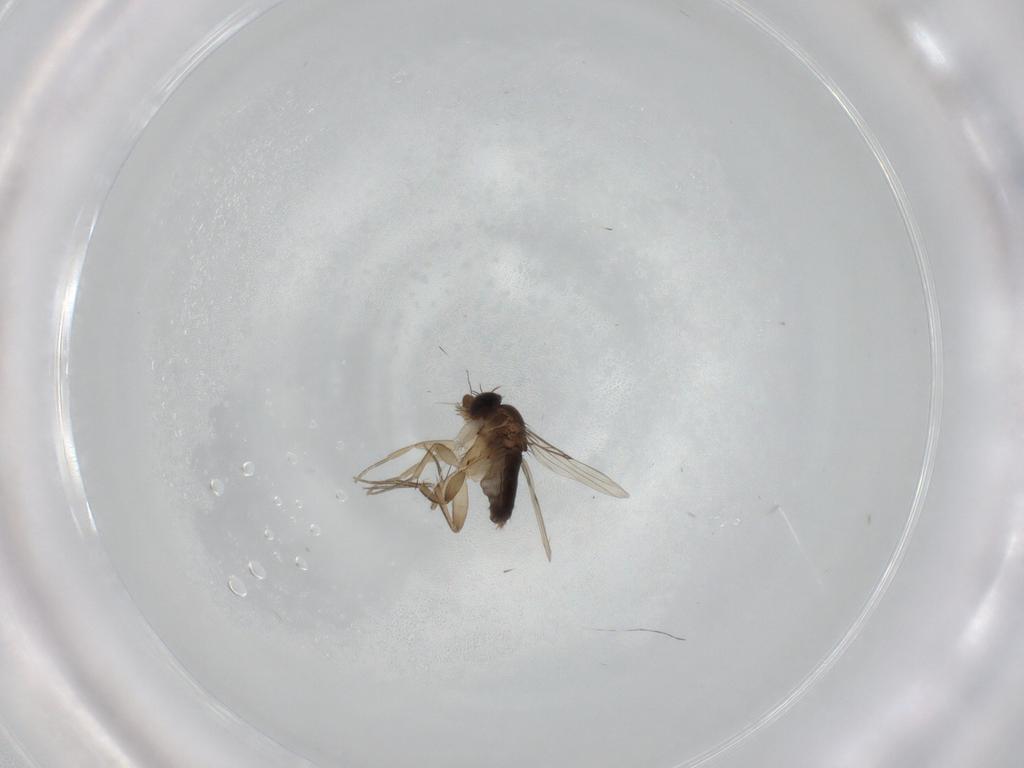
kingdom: Animalia
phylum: Arthropoda
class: Insecta
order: Diptera
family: Phoridae
